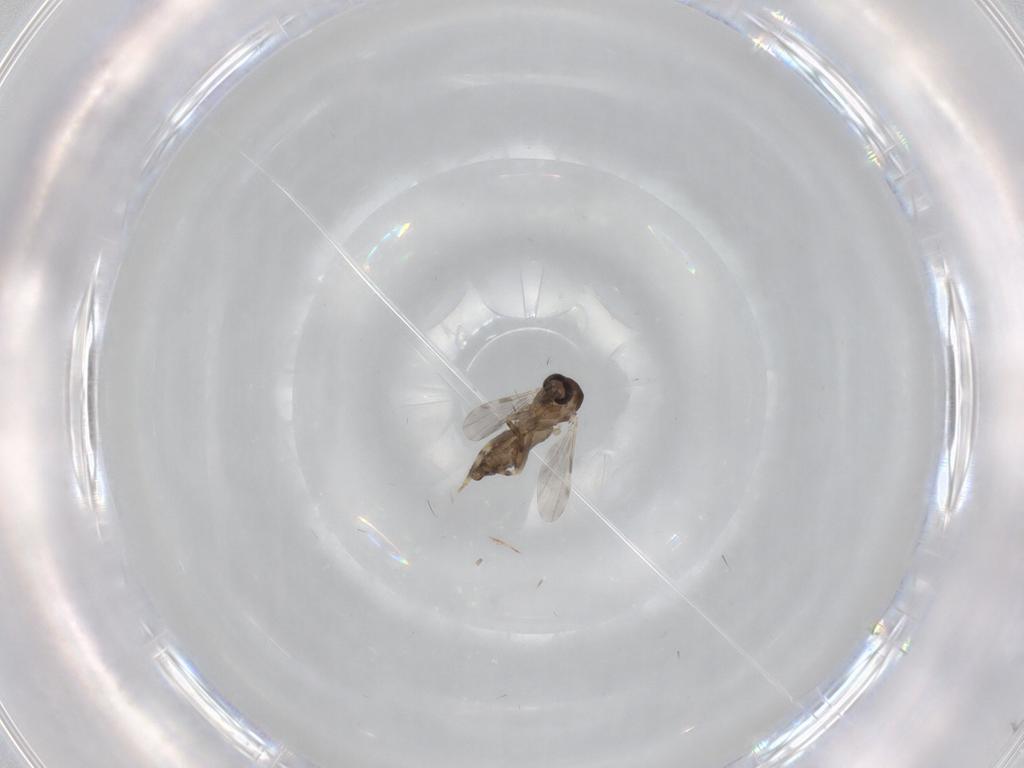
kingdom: Animalia
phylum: Arthropoda
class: Insecta
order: Diptera
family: Ceratopogonidae
